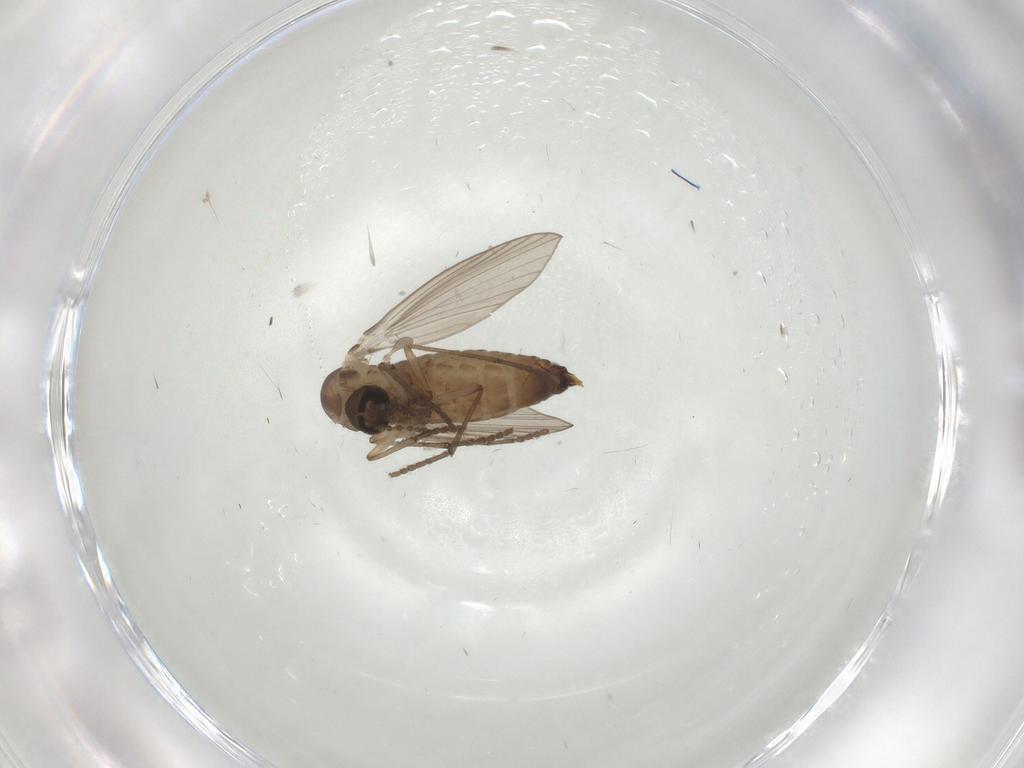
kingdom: Animalia
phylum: Arthropoda
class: Insecta
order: Diptera
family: Psychodidae
